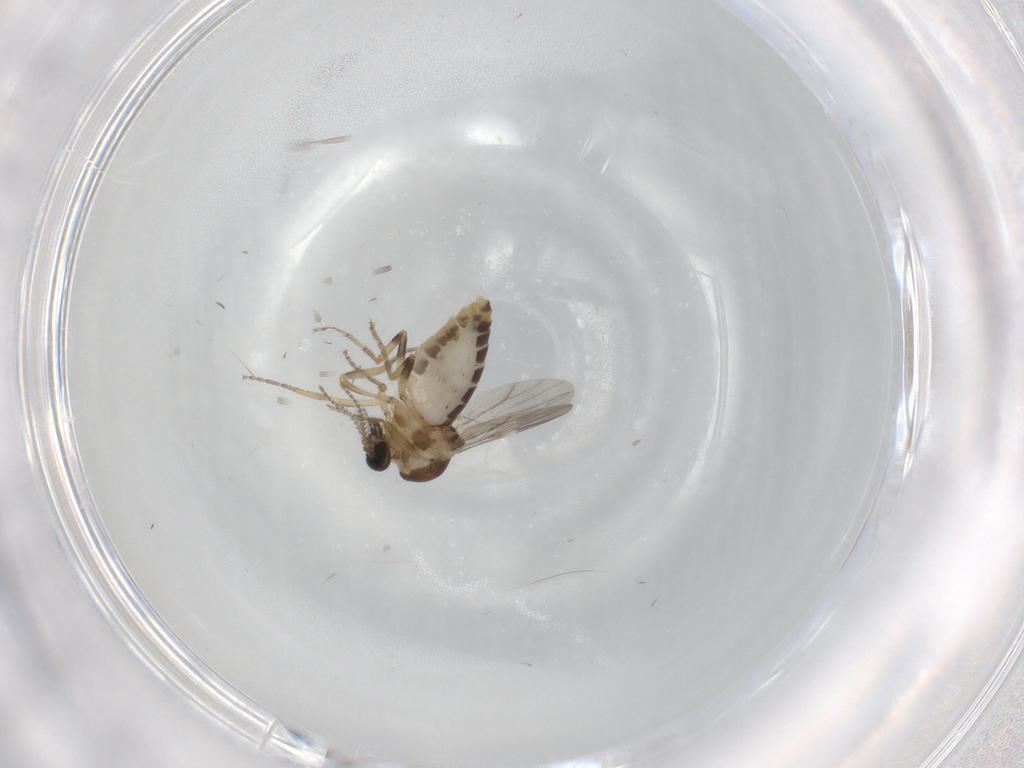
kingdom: Animalia
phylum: Arthropoda
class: Insecta
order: Diptera
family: Ceratopogonidae
